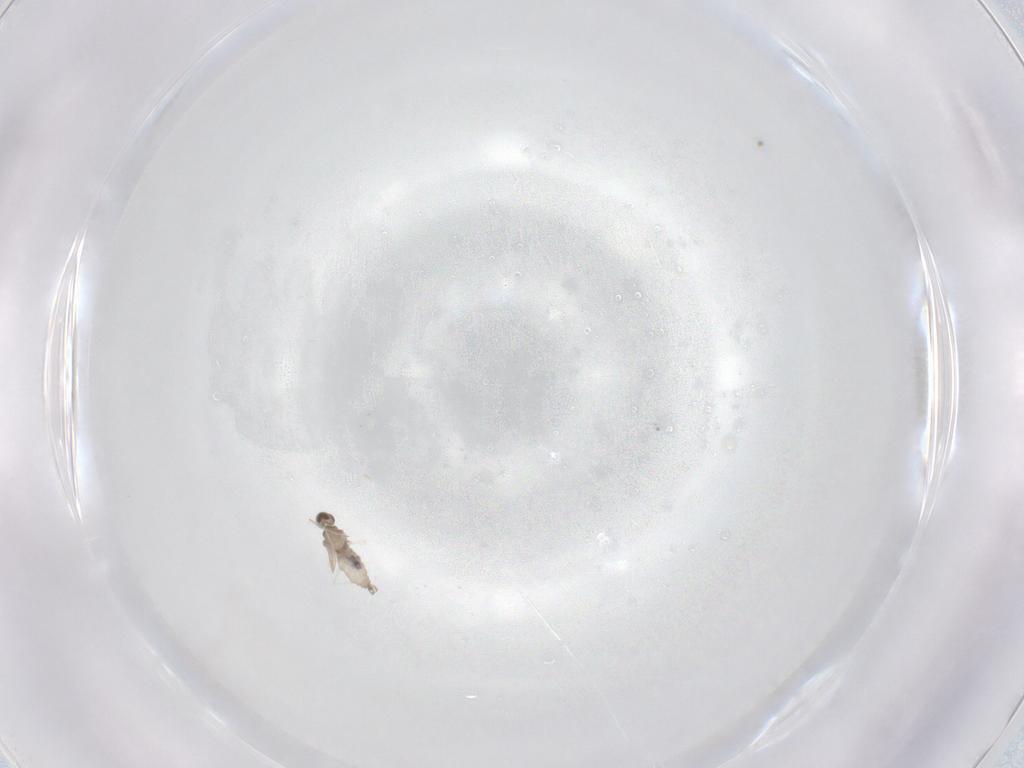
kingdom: Animalia
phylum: Arthropoda
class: Insecta
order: Diptera
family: Cecidomyiidae
